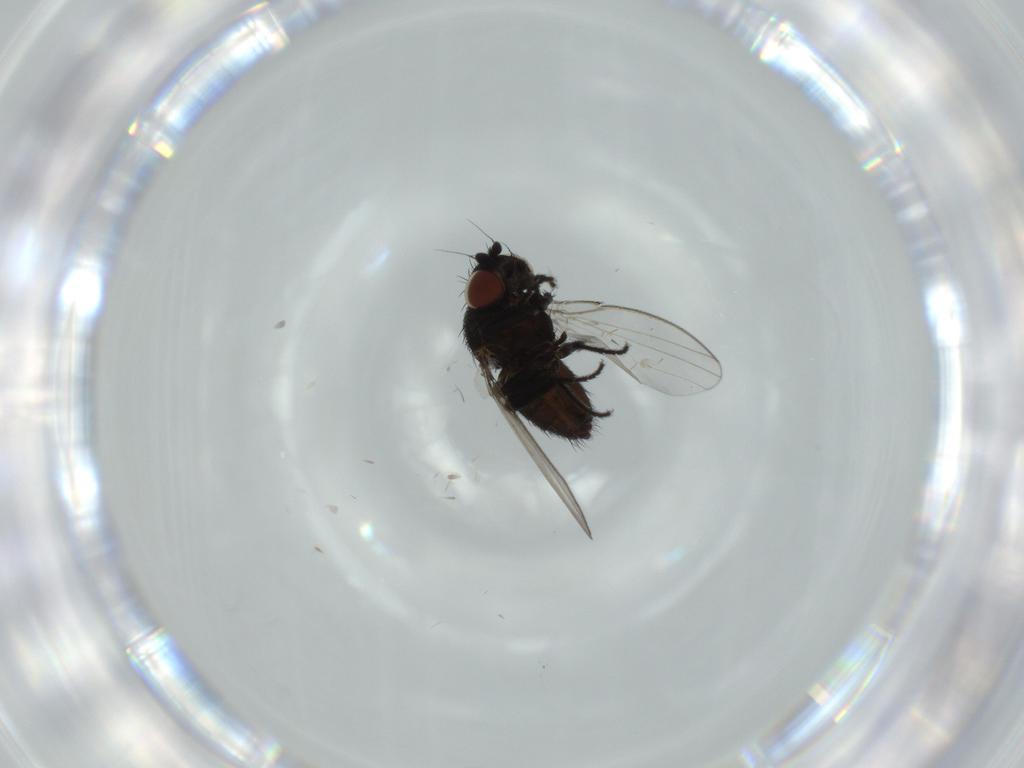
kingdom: Animalia
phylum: Arthropoda
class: Insecta
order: Diptera
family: Sciaridae
